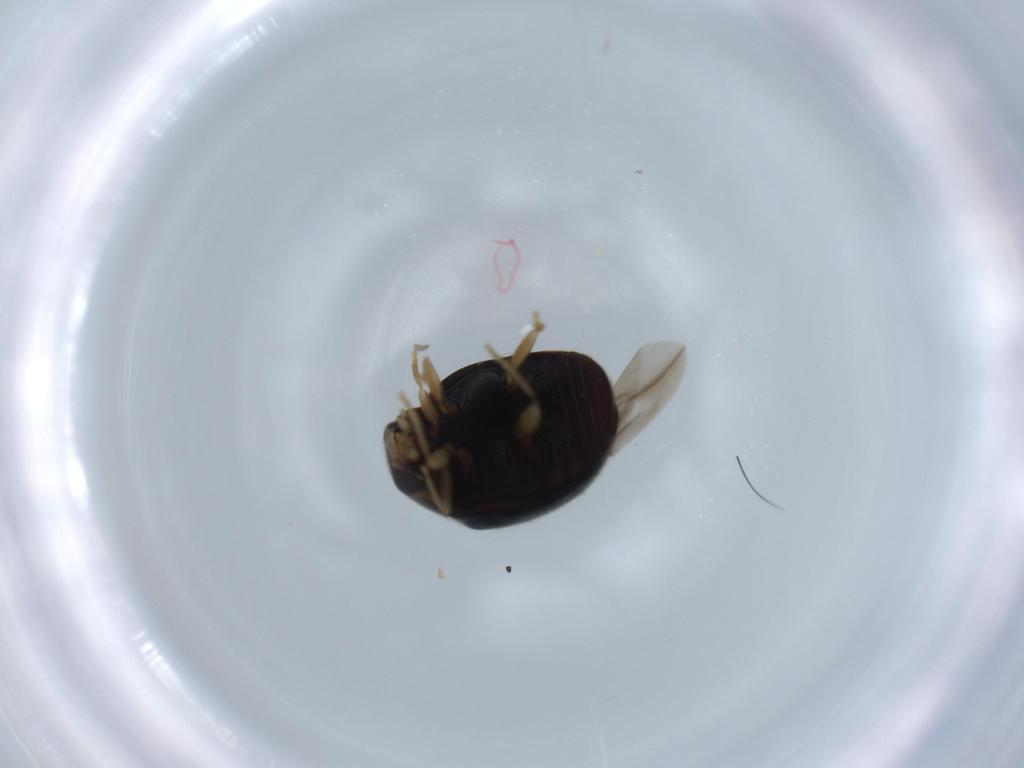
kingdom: Animalia
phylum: Arthropoda
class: Insecta
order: Coleoptera
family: Coccinellidae
